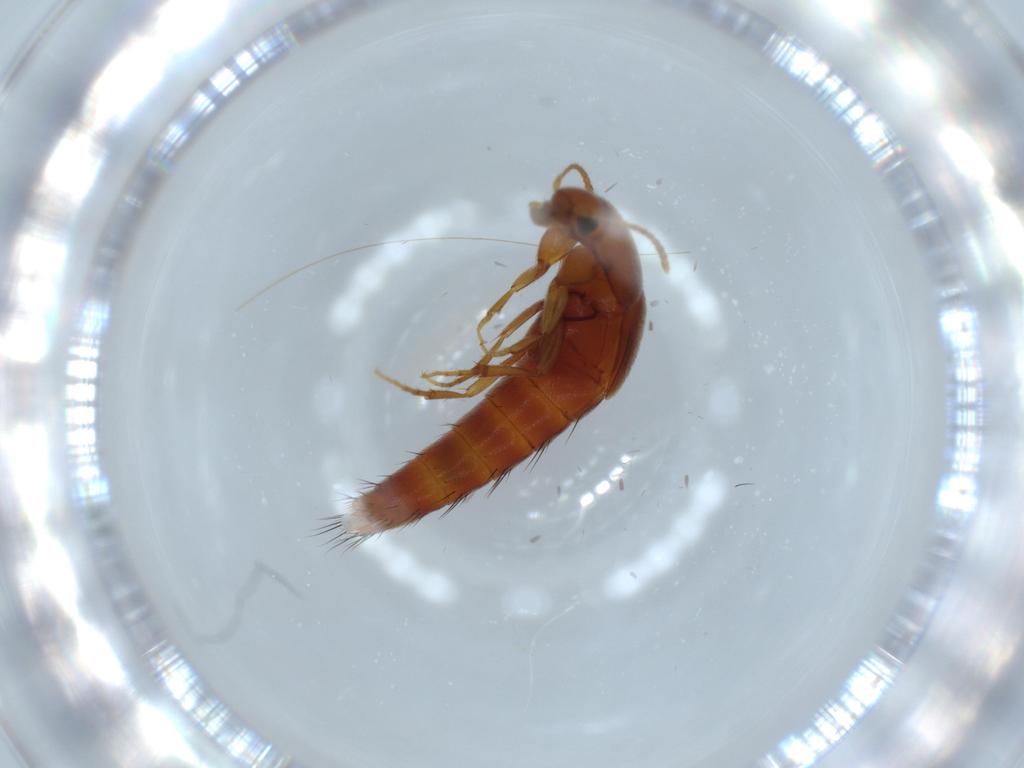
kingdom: Animalia
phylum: Arthropoda
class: Insecta
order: Coleoptera
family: Staphylinidae
